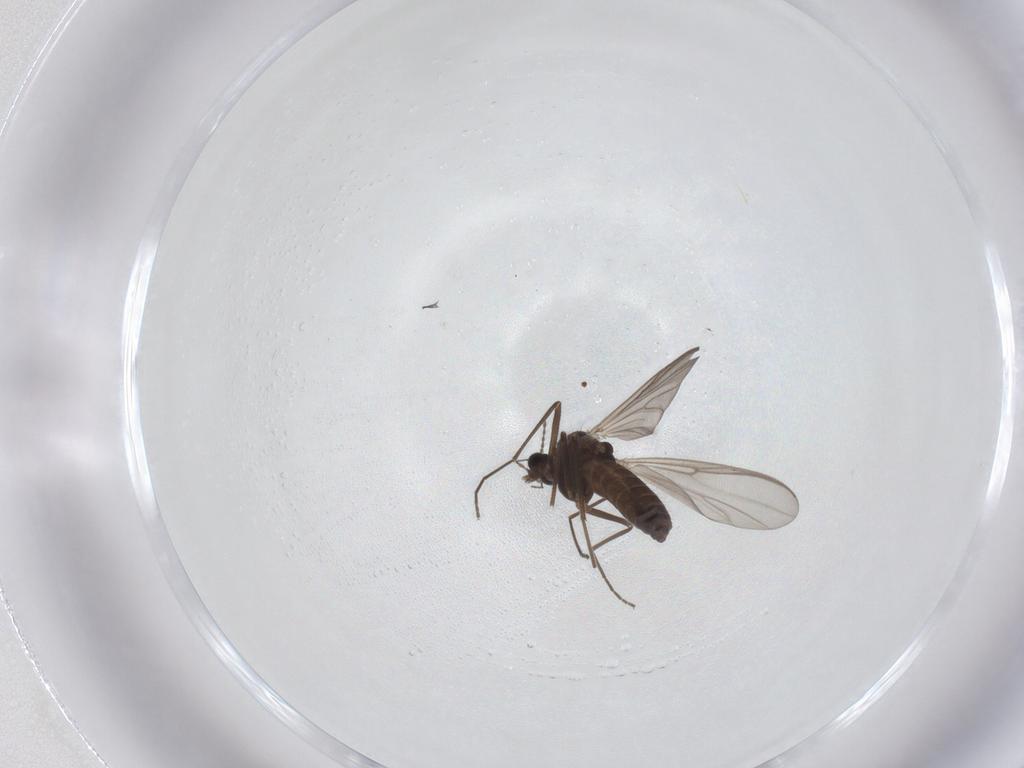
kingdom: Animalia
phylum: Arthropoda
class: Insecta
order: Diptera
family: Chironomidae
